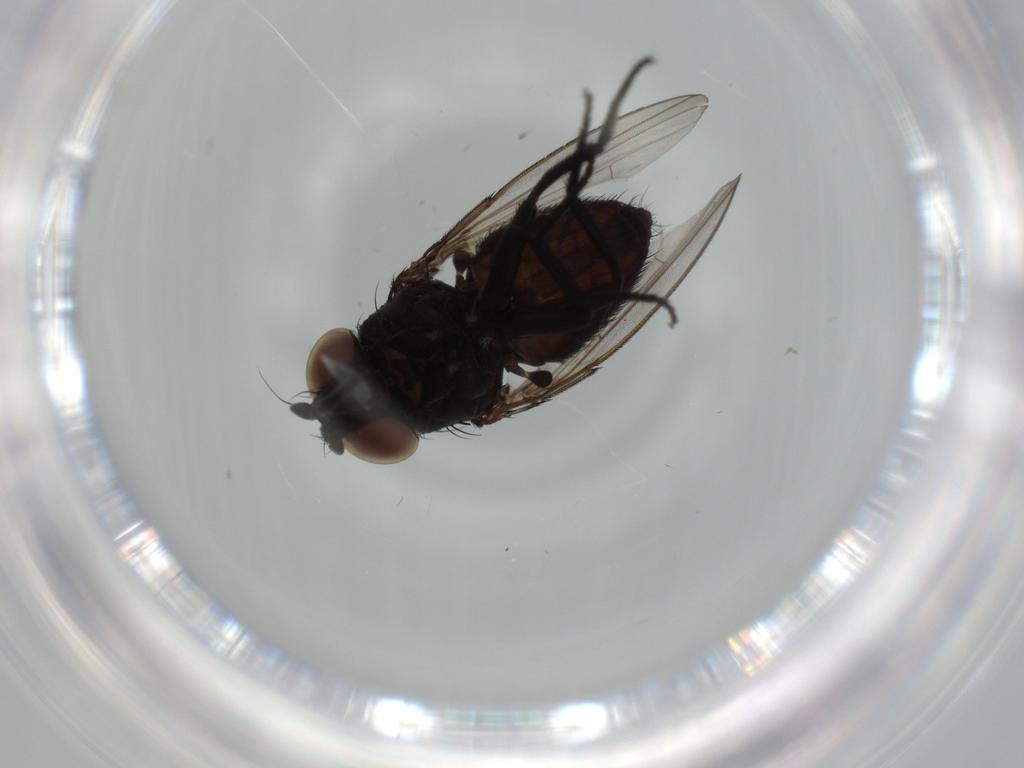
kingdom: Animalia
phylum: Arthropoda
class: Insecta
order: Diptera
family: Milichiidae
